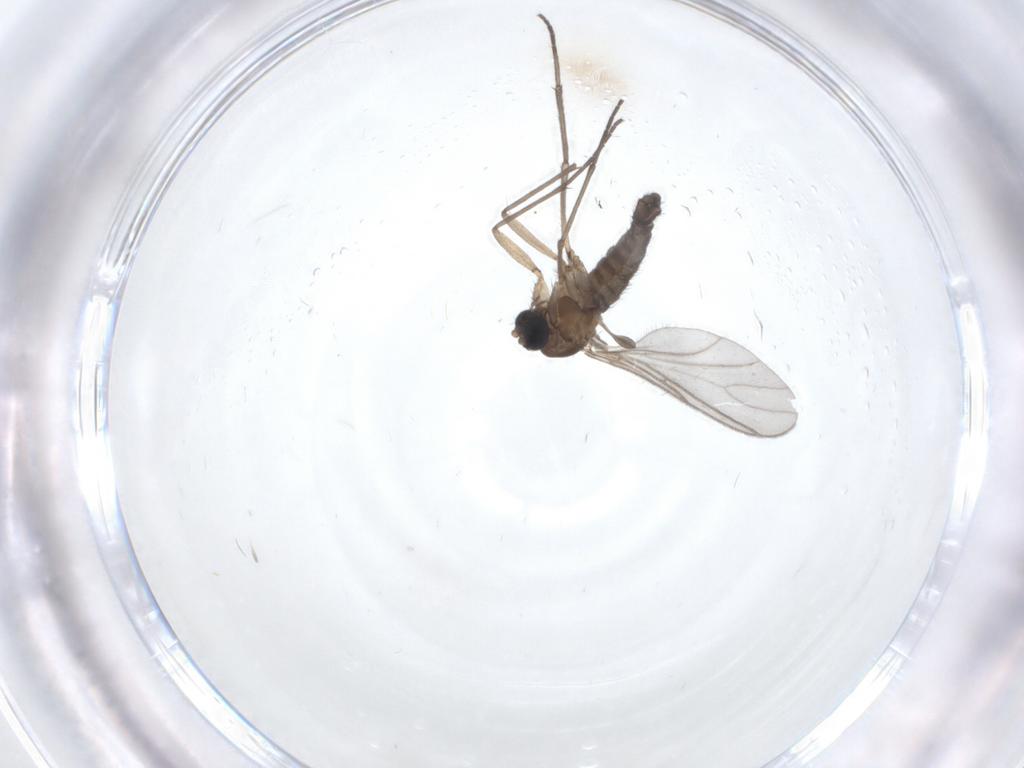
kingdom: Animalia
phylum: Arthropoda
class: Insecta
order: Diptera
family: Sciaridae
